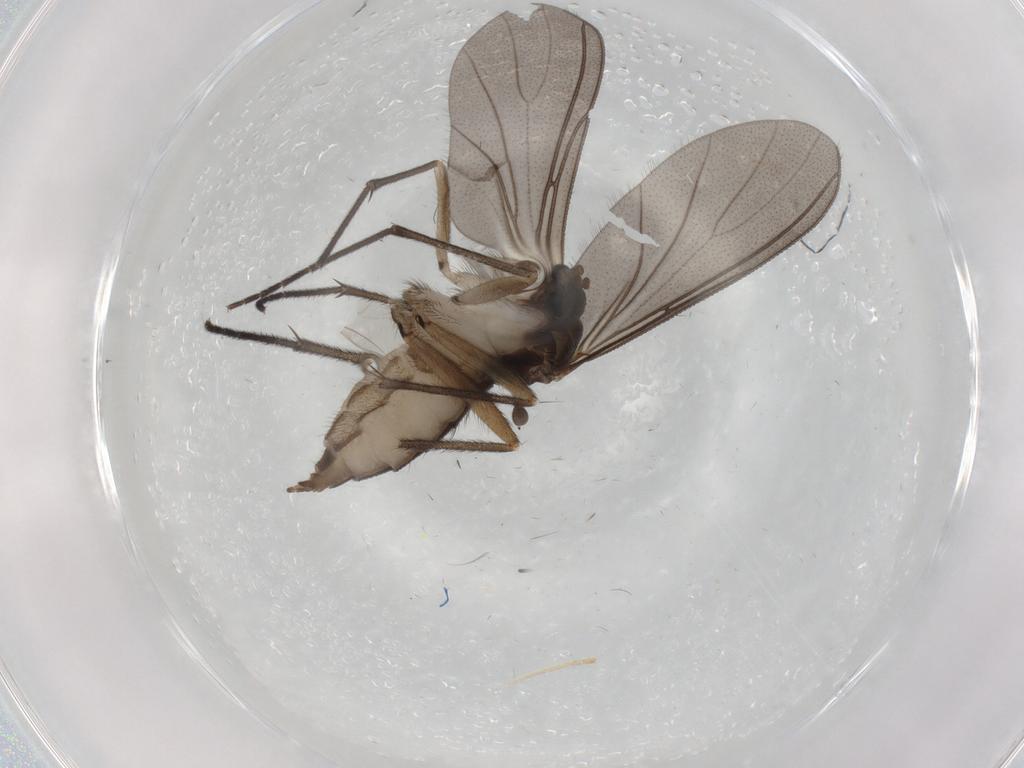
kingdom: Animalia
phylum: Arthropoda
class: Insecta
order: Diptera
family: Sciaridae
